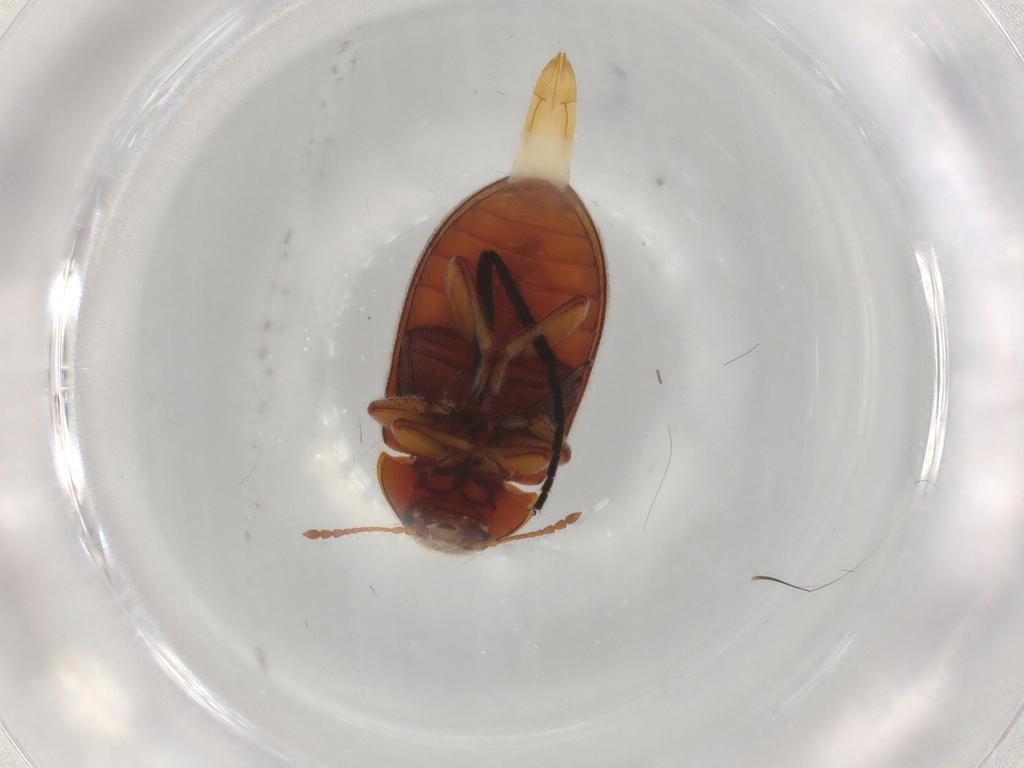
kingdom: Animalia
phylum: Arthropoda
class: Insecta
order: Coleoptera
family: Byturidae
